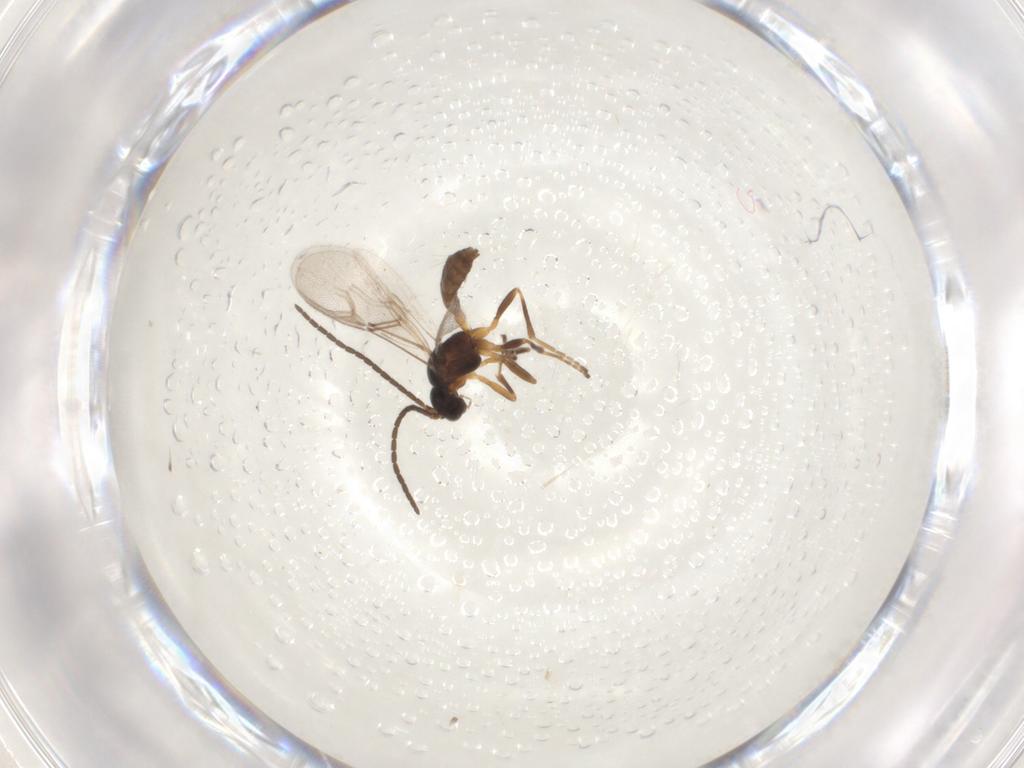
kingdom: Animalia
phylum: Arthropoda
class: Insecta
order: Hymenoptera
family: Braconidae
